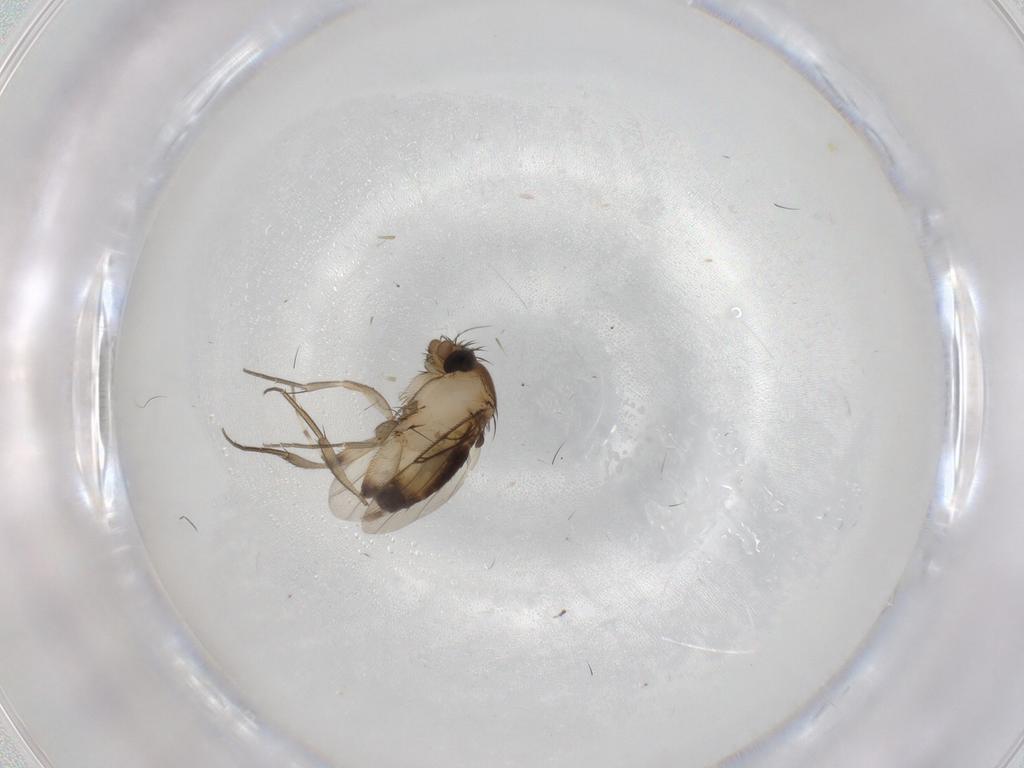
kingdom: Animalia
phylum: Arthropoda
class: Insecta
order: Diptera
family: Phoridae
